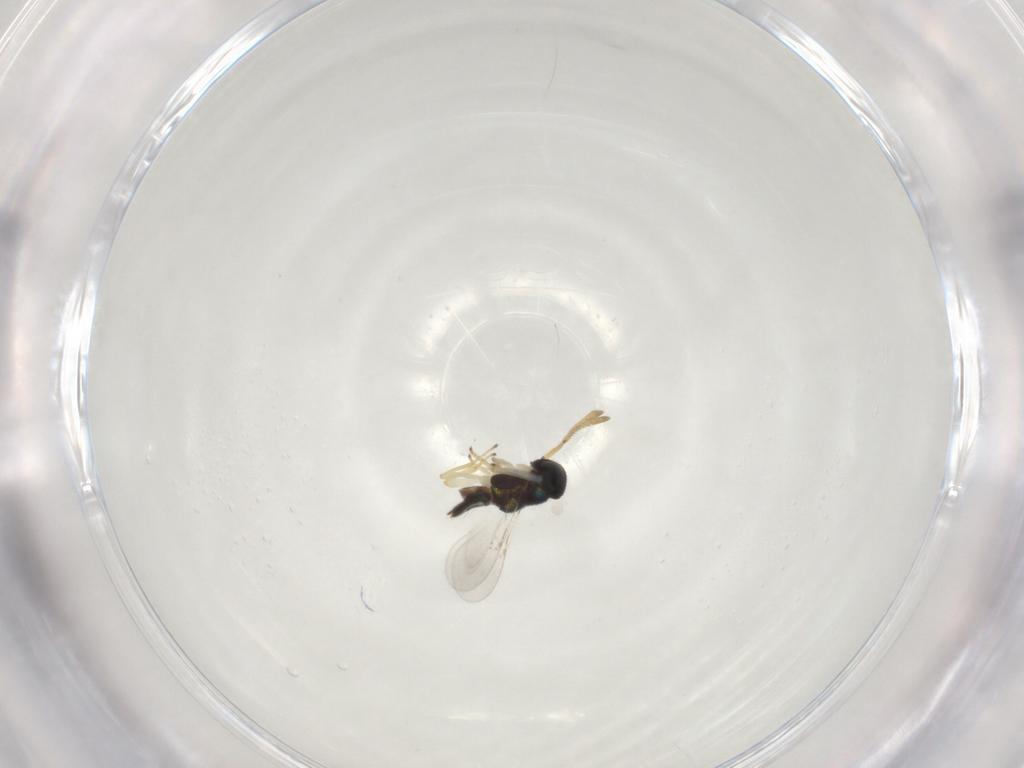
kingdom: Animalia
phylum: Arthropoda
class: Insecta
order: Hymenoptera
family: Encyrtidae
